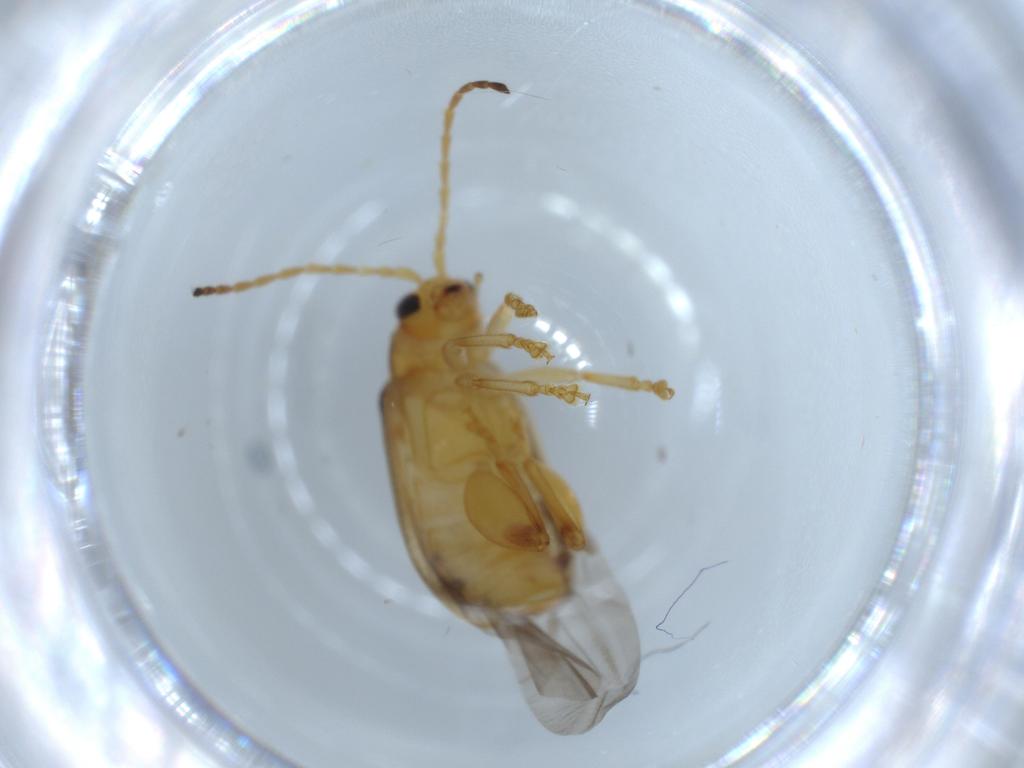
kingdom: Animalia
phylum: Arthropoda
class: Insecta
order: Coleoptera
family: Chrysomelidae
